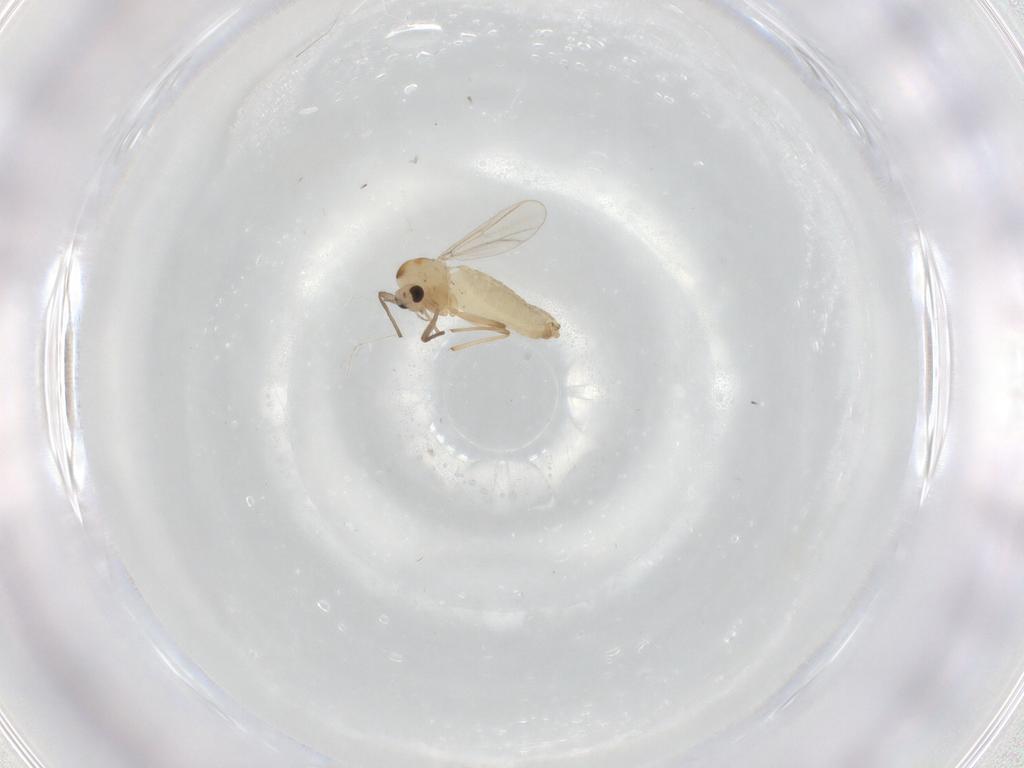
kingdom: Animalia
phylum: Arthropoda
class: Insecta
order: Diptera
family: Chironomidae
